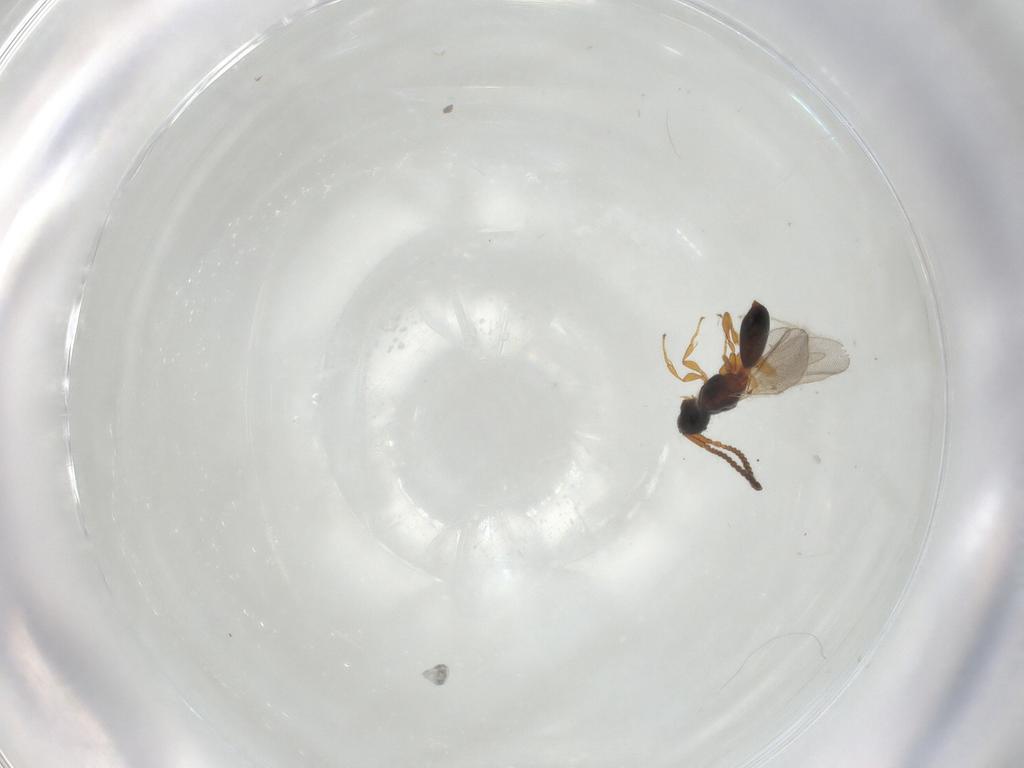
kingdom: Animalia
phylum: Arthropoda
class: Insecta
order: Hymenoptera
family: Diapriidae
